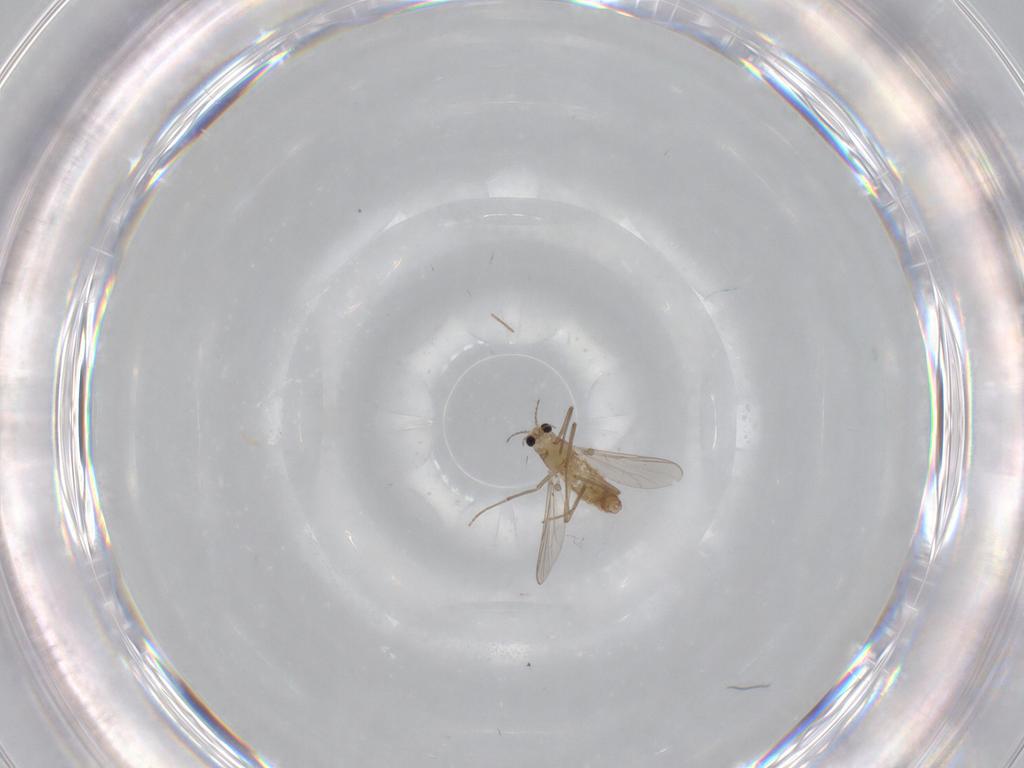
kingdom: Animalia
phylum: Arthropoda
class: Insecta
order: Diptera
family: Chironomidae
